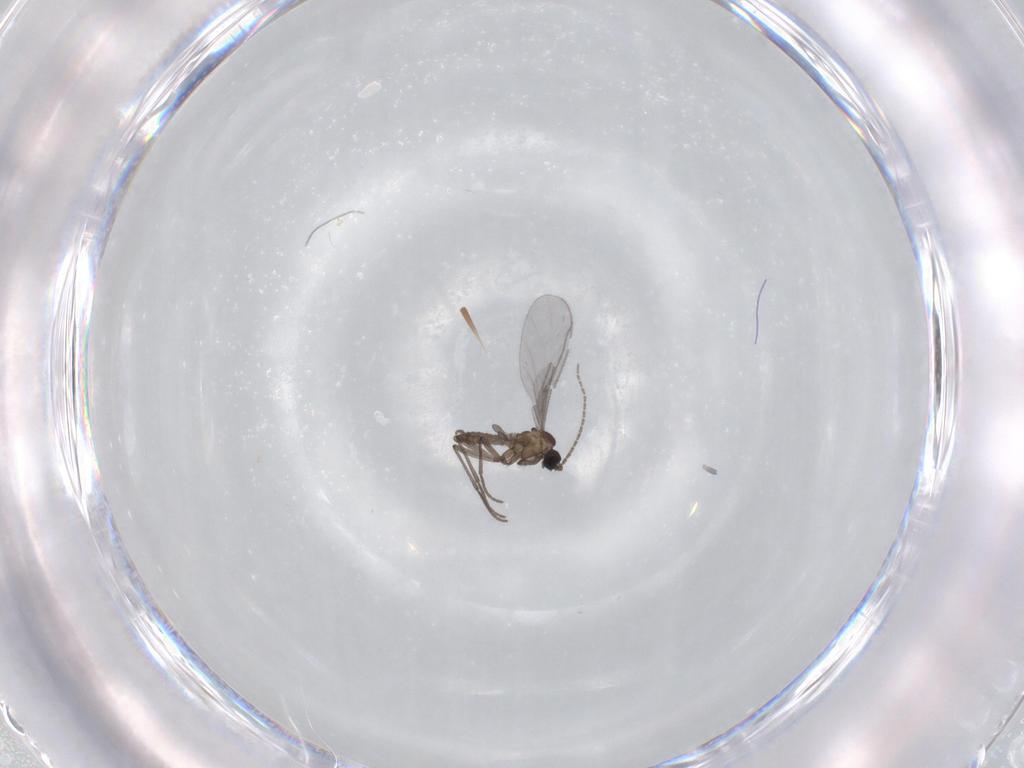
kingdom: Animalia
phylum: Arthropoda
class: Insecta
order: Diptera
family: Sciaridae
